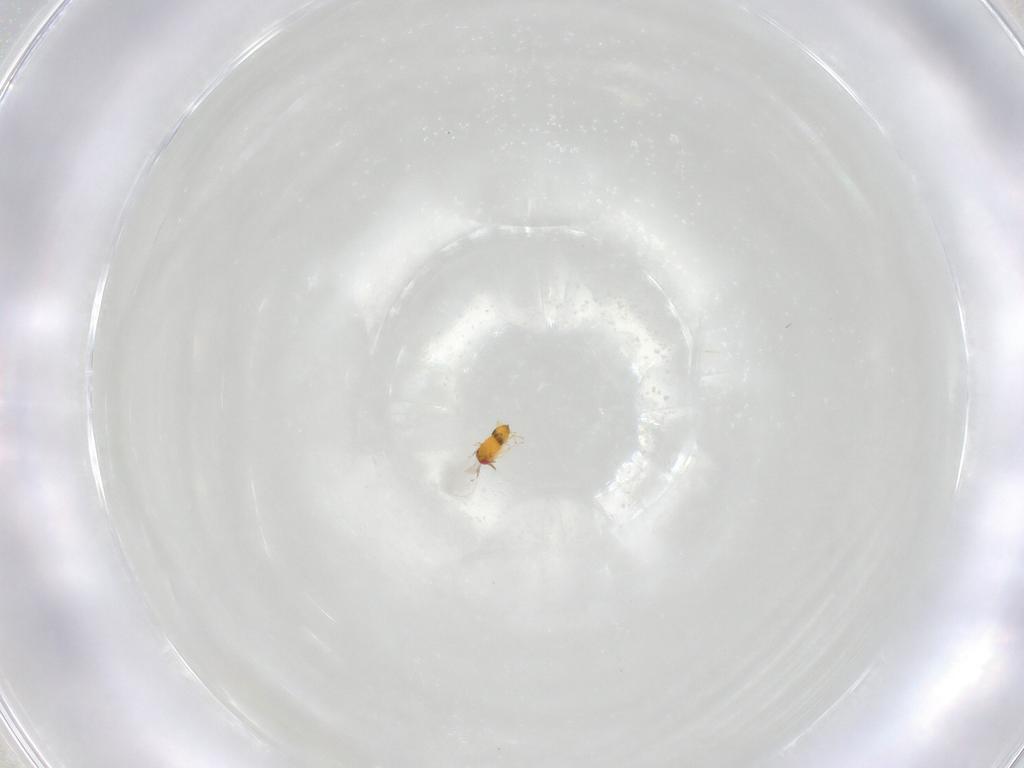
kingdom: Animalia
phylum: Arthropoda
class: Insecta
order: Hymenoptera
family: Trichogrammatidae
